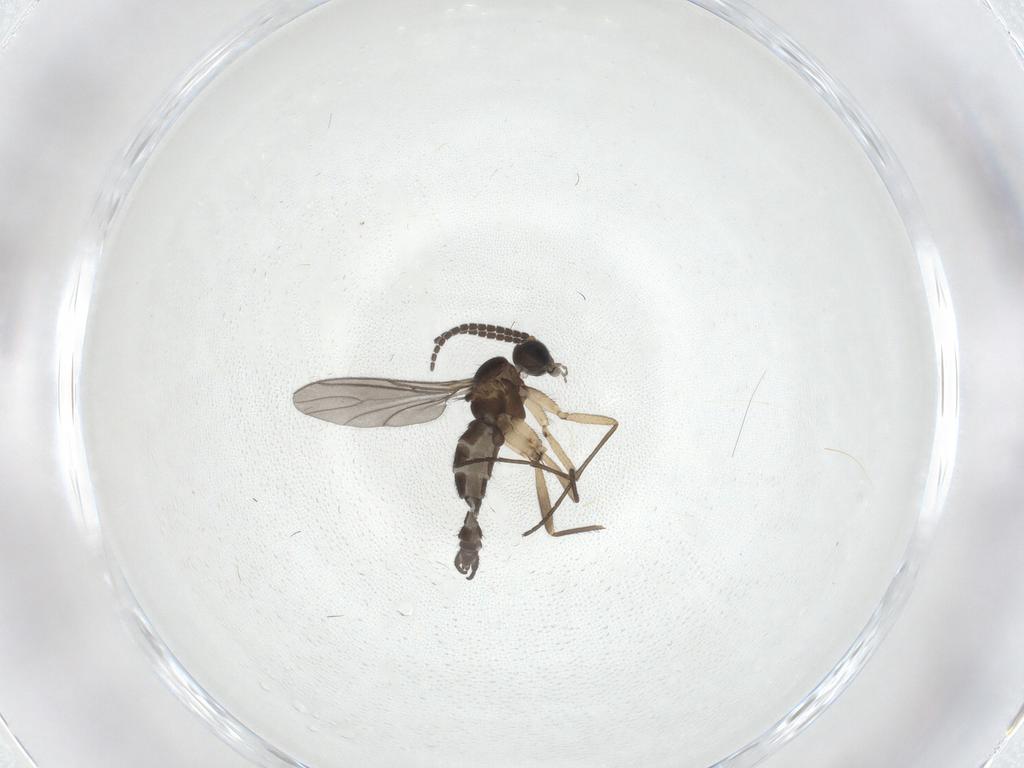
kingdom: Animalia
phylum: Arthropoda
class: Insecta
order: Diptera
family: Sciaridae
